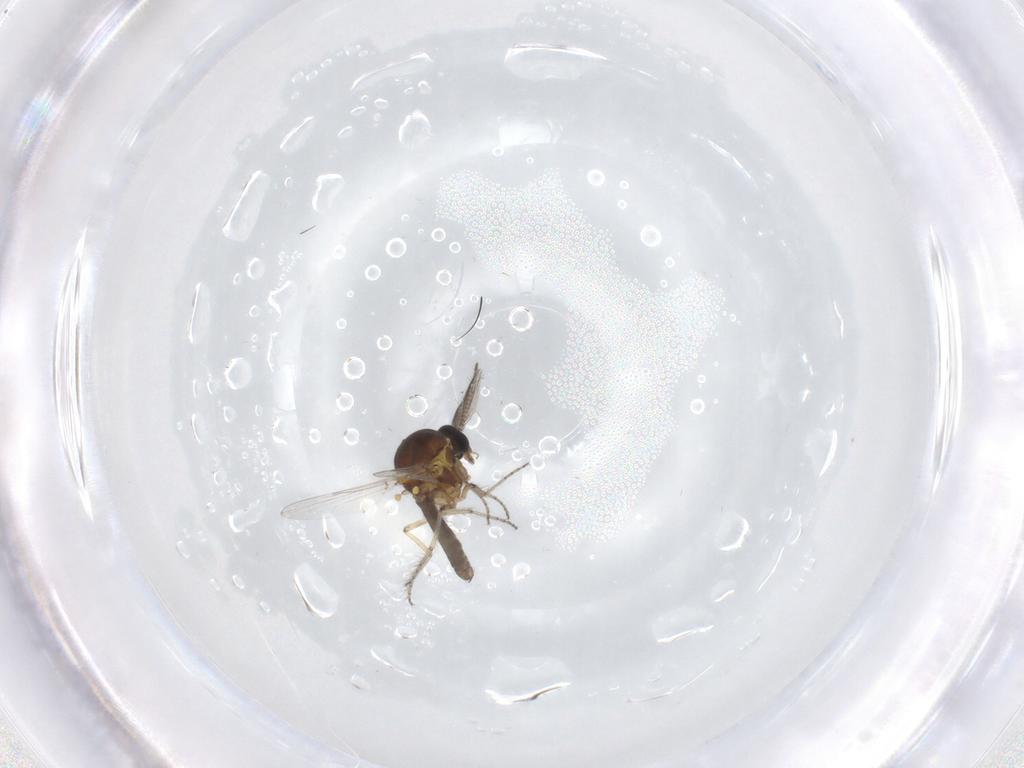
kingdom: Animalia
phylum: Arthropoda
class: Insecta
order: Diptera
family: Ceratopogonidae
